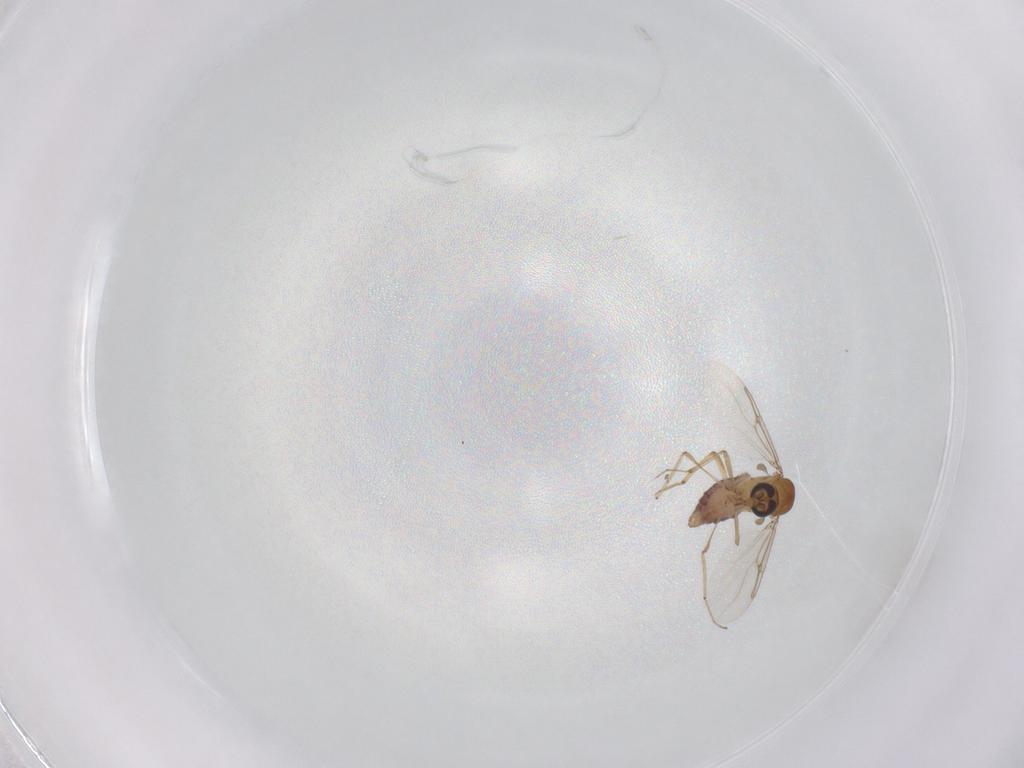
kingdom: Animalia
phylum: Arthropoda
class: Insecta
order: Diptera
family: Ceratopogonidae
